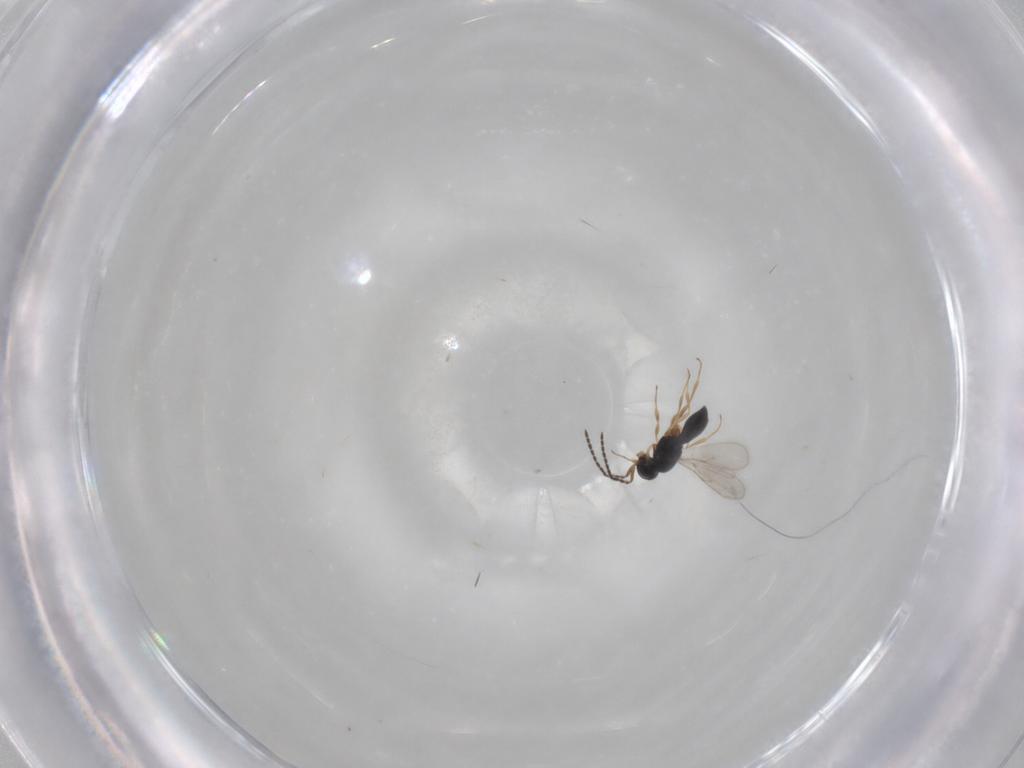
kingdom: Animalia
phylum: Arthropoda
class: Insecta
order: Hymenoptera
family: Scelionidae
